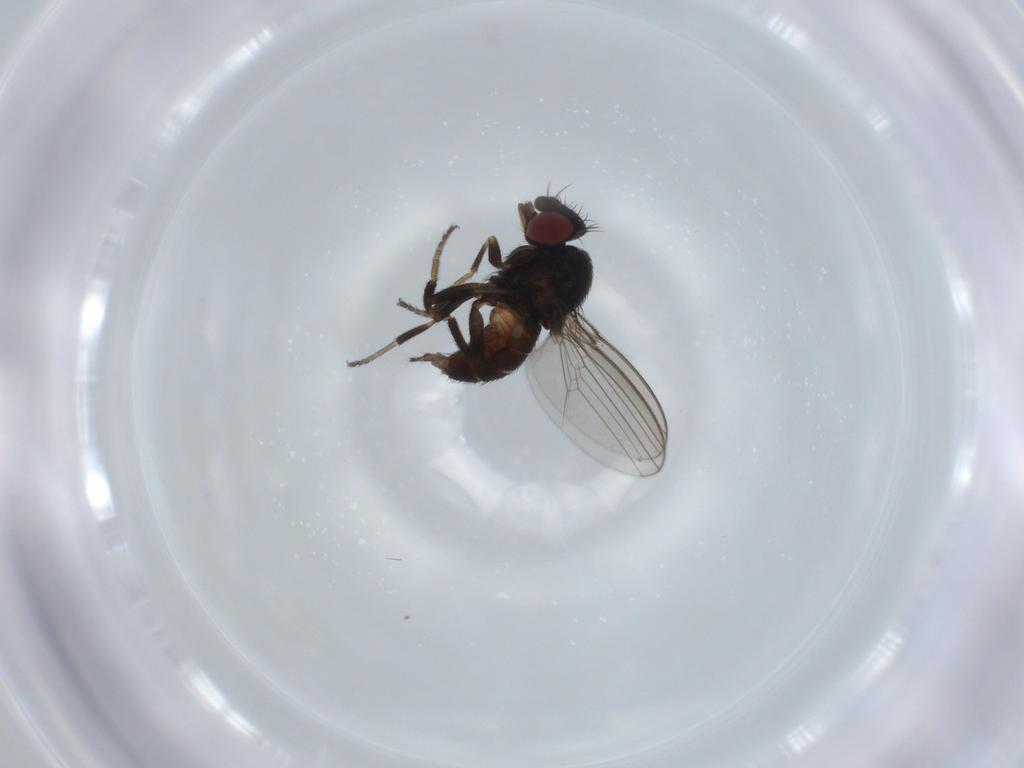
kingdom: Animalia
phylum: Arthropoda
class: Insecta
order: Diptera
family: Milichiidae
